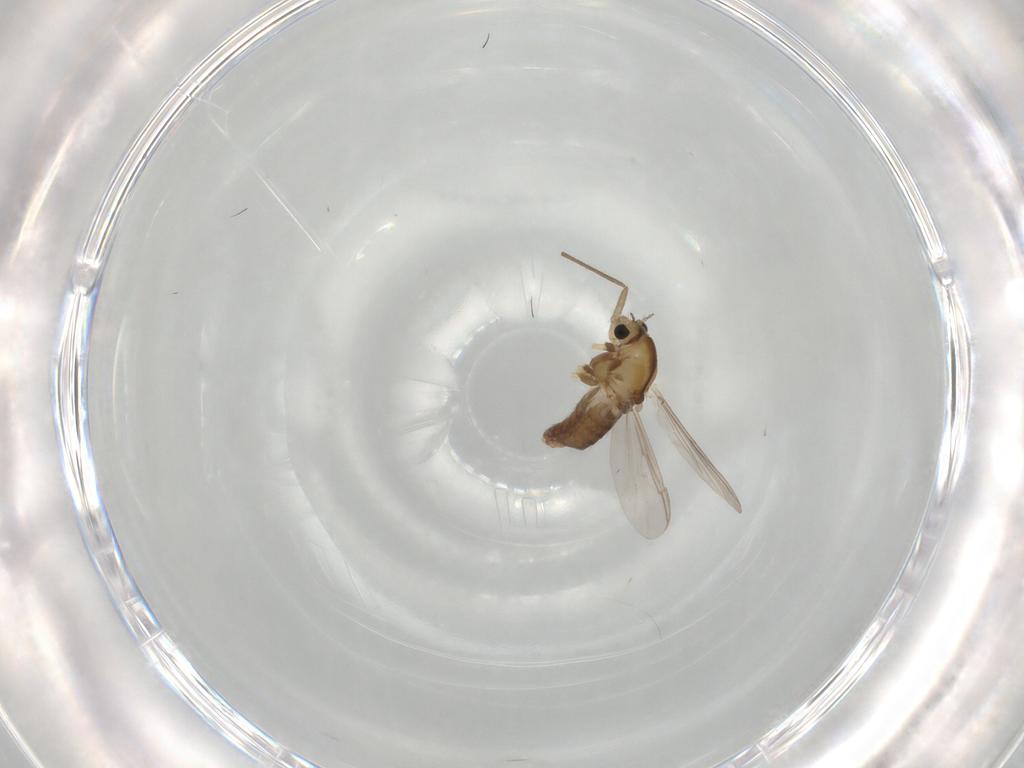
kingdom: Animalia
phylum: Arthropoda
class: Insecta
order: Diptera
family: Chironomidae
